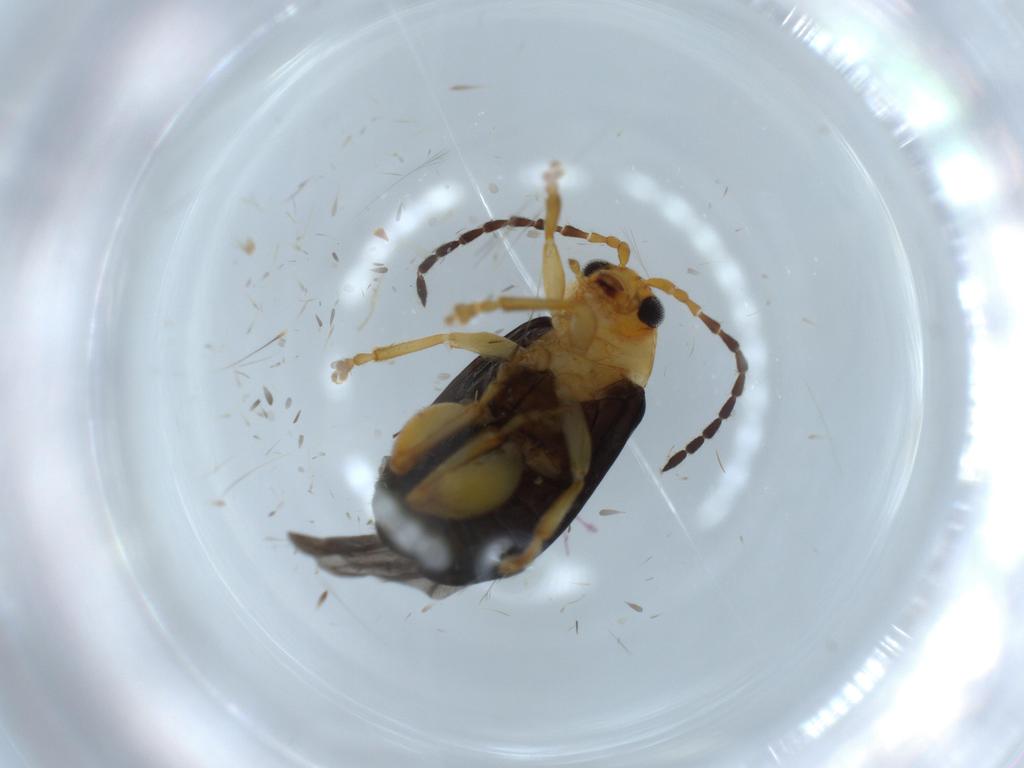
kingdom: Animalia
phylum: Arthropoda
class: Insecta
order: Coleoptera
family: Chrysomelidae
